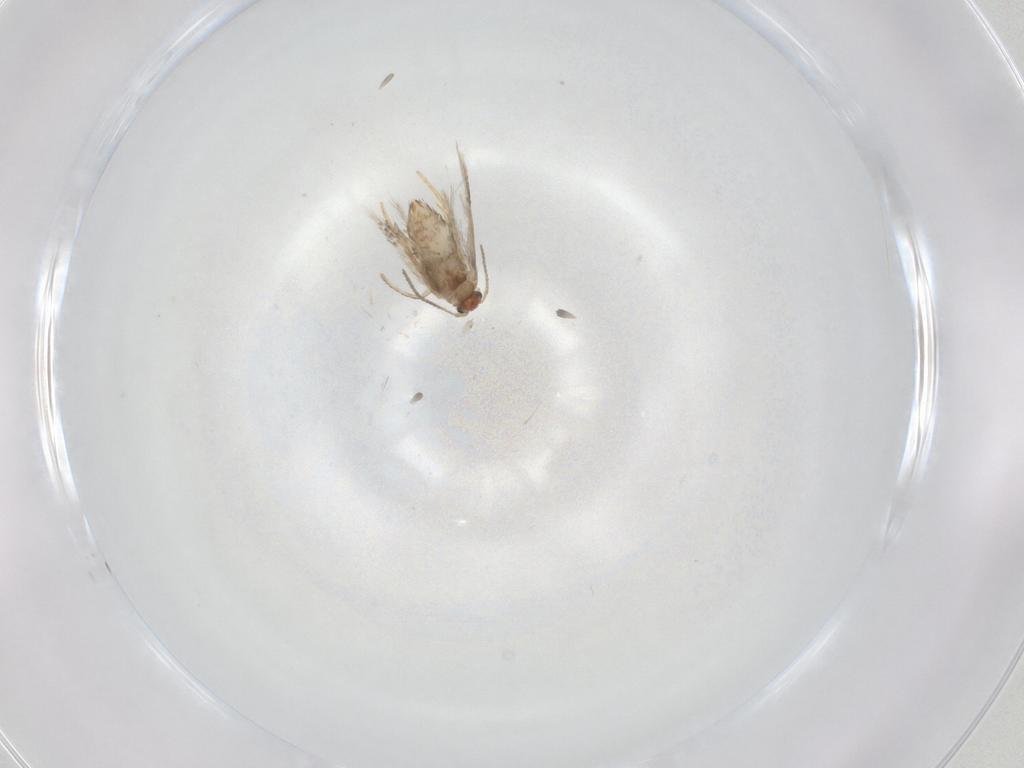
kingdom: Animalia
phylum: Arthropoda
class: Insecta
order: Lepidoptera
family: Nepticulidae
